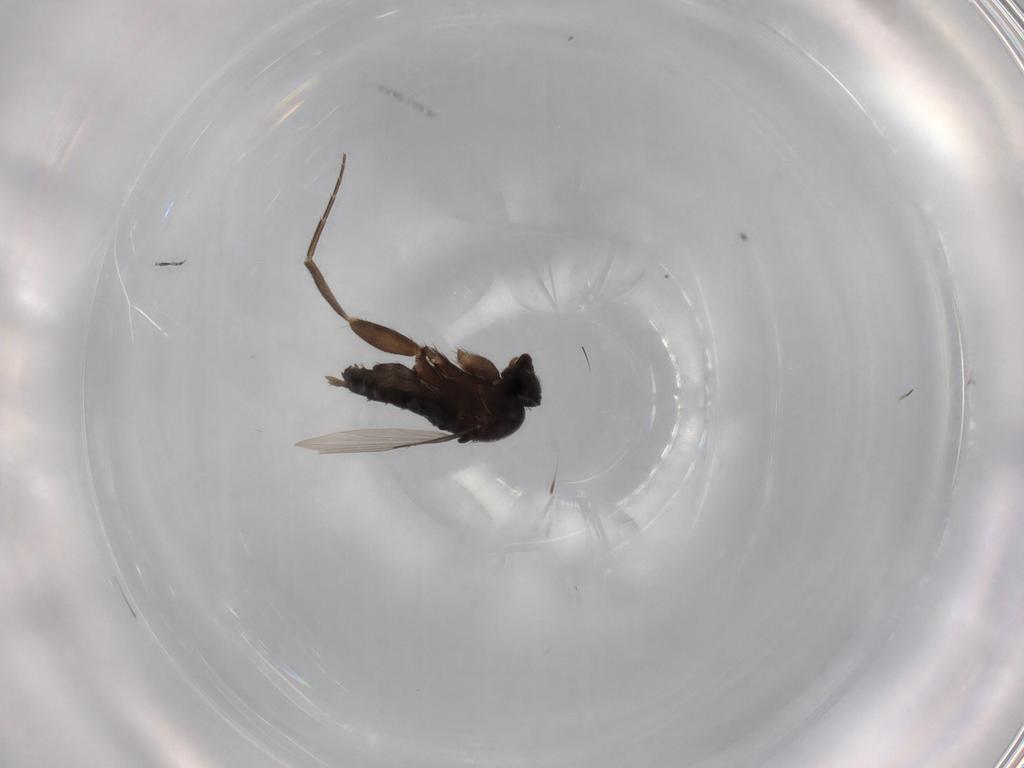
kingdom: Animalia
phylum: Arthropoda
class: Insecta
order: Diptera
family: Muscidae
